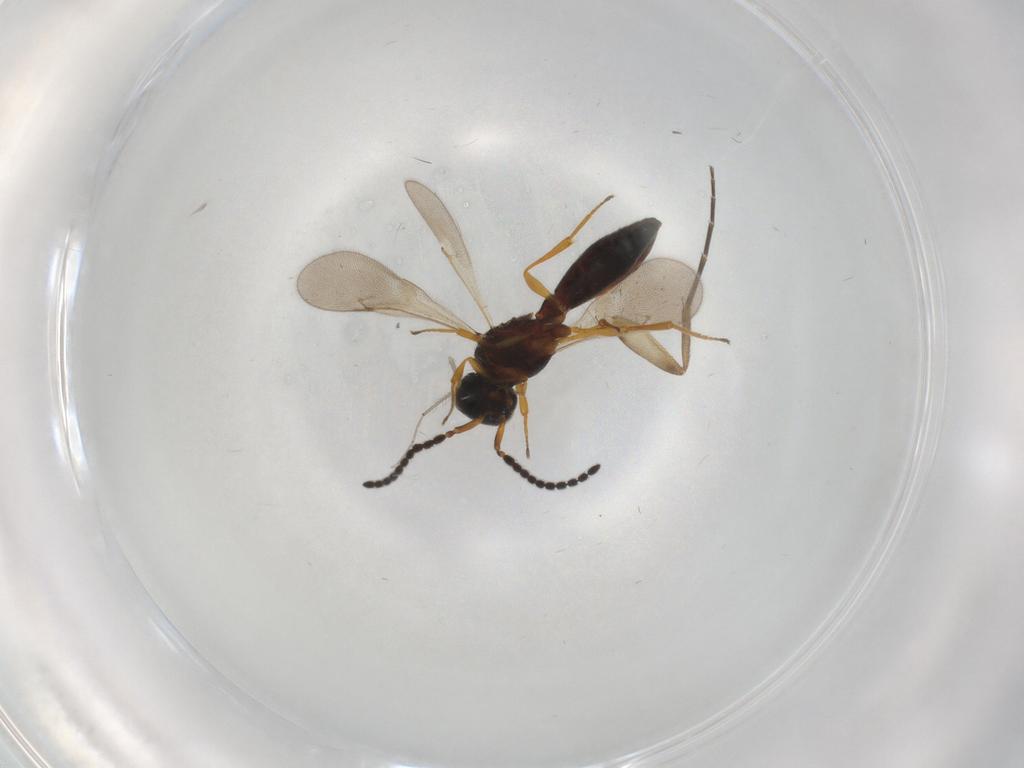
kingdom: Animalia
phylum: Arthropoda
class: Insecta
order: Hymenoptera
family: Scelionidae
